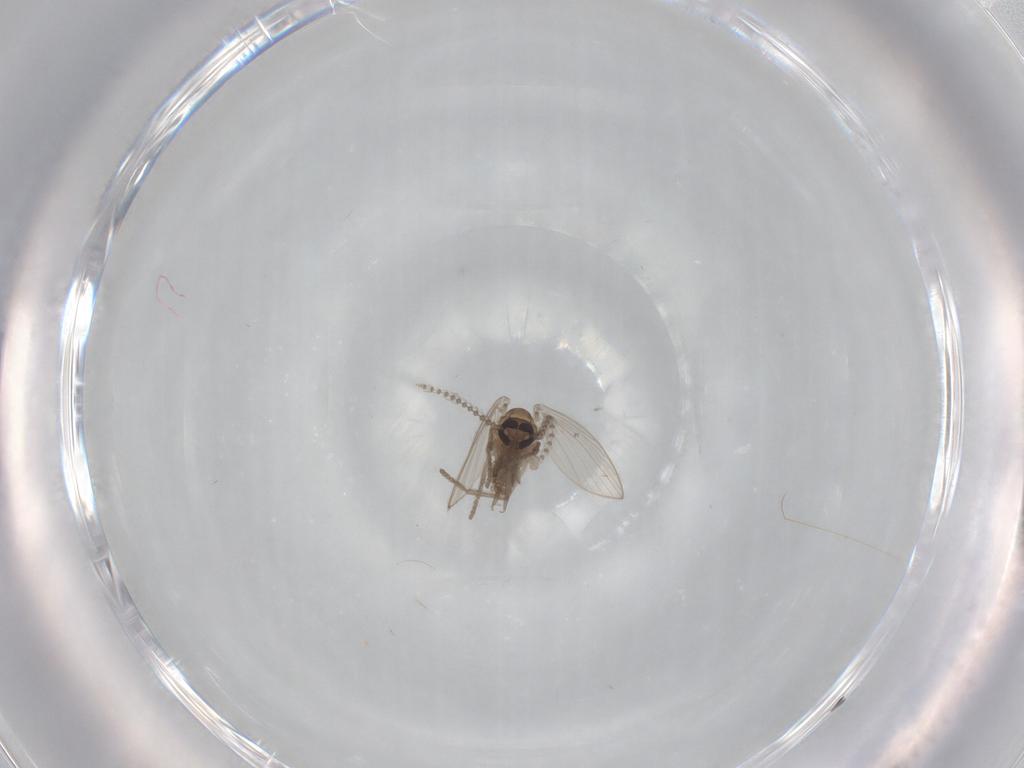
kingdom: Animalia
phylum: Arthropoda
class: Insecta
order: Diptera
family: Psychodidae
